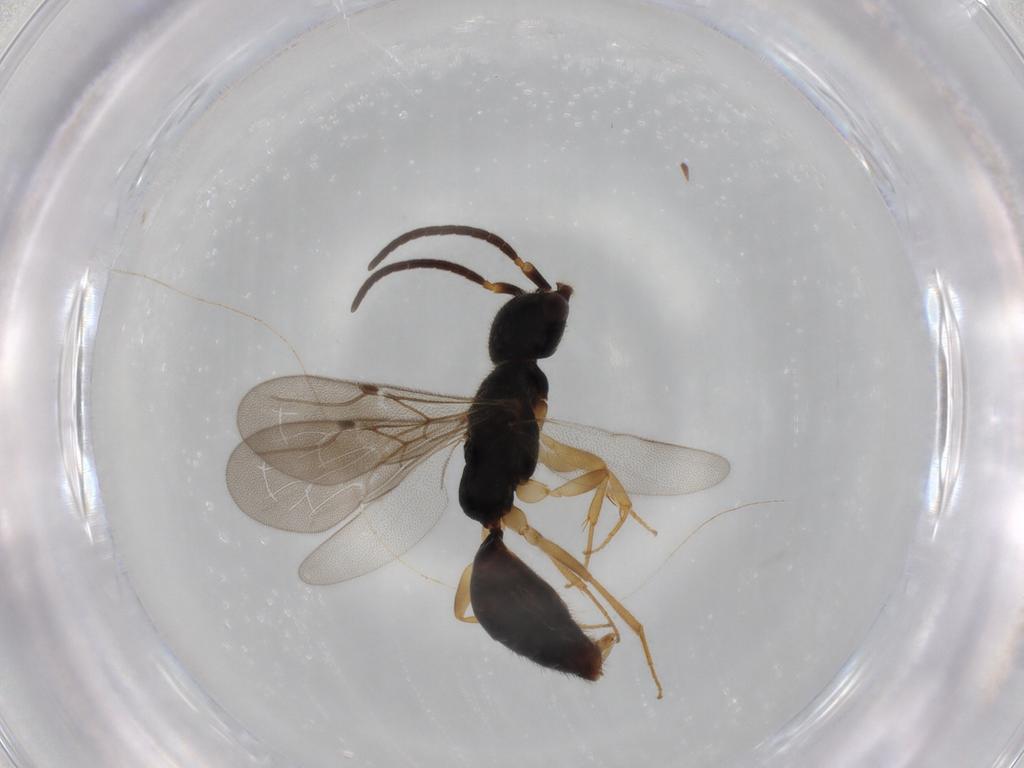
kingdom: Animalia
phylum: Arthropoda
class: Insecta
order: Hymenoptera
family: Bethylidae
